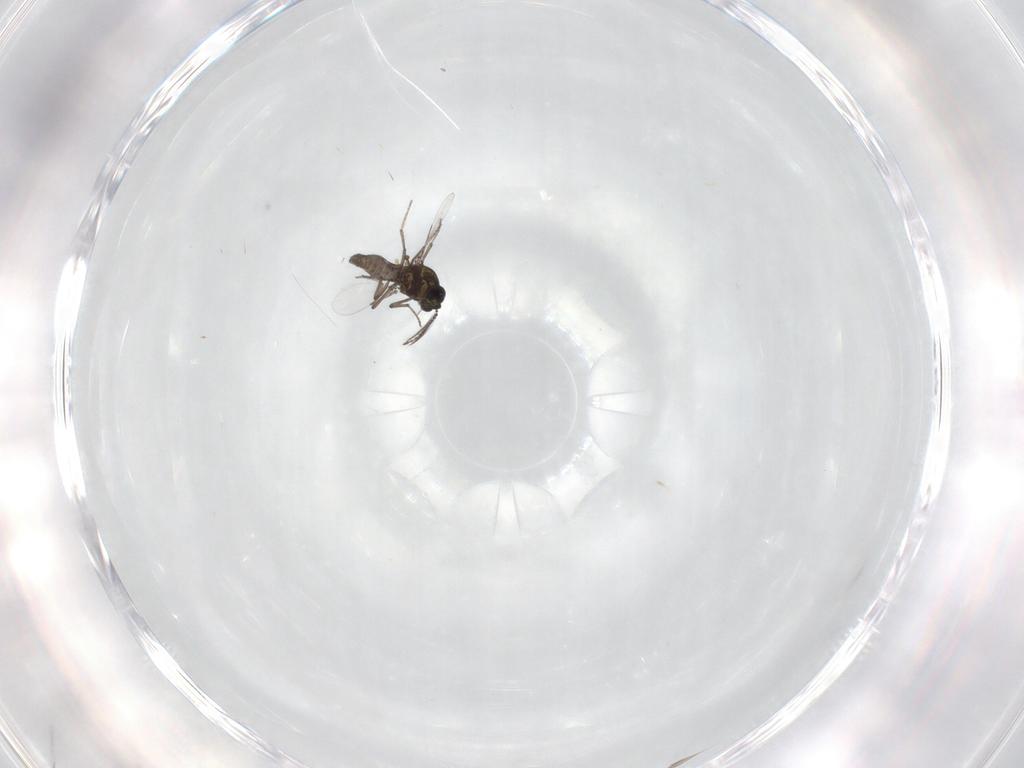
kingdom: Animalia
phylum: Arthropoda
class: Insecta
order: Diptera
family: Ceratopogonidae
